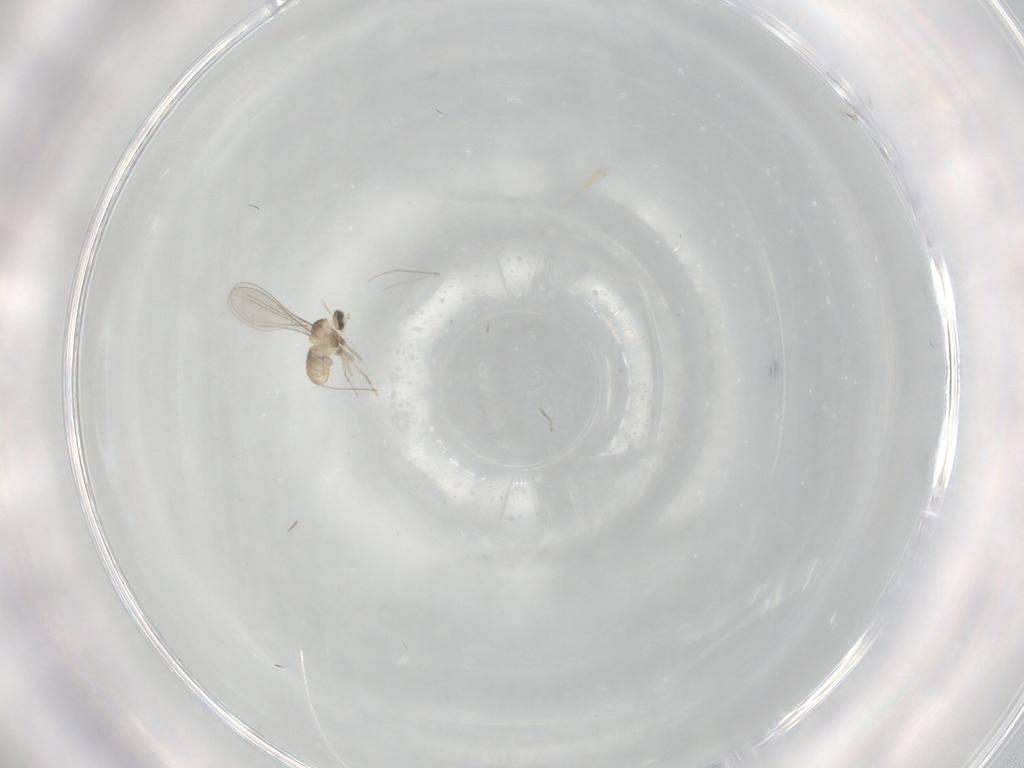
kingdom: Animalia
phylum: Arthropoda
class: Insecta
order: Diptera
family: Cecidomyiidae
